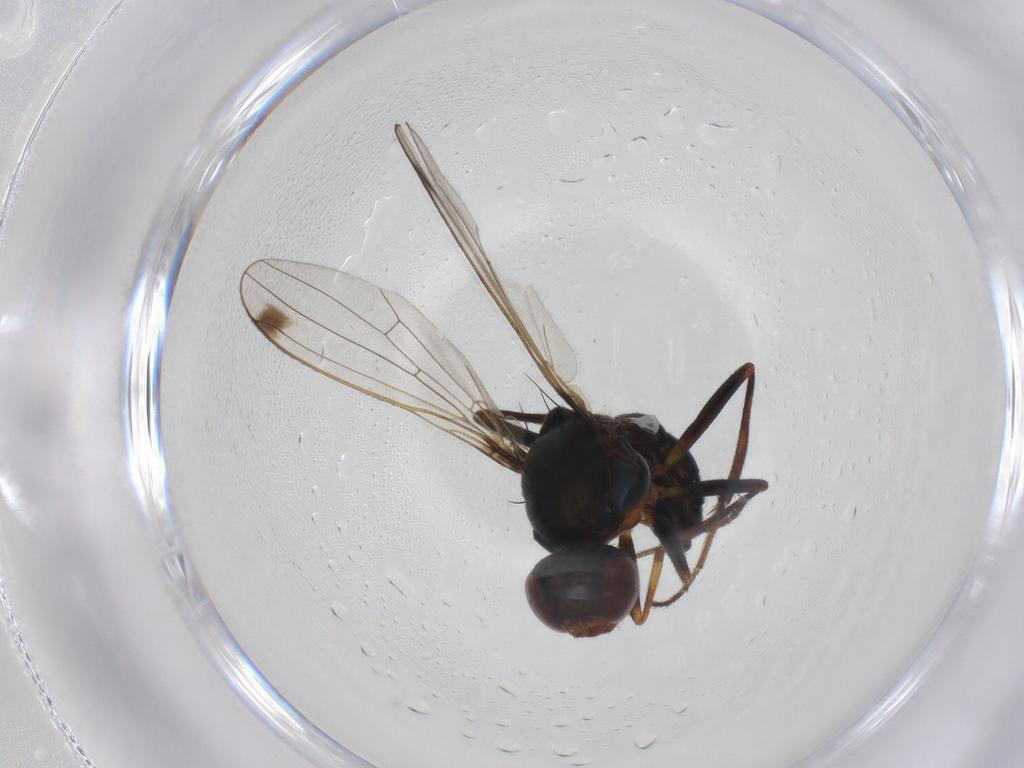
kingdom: Animalia
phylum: Arthropoda
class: Insecta
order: Diptera
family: Sepsidae
